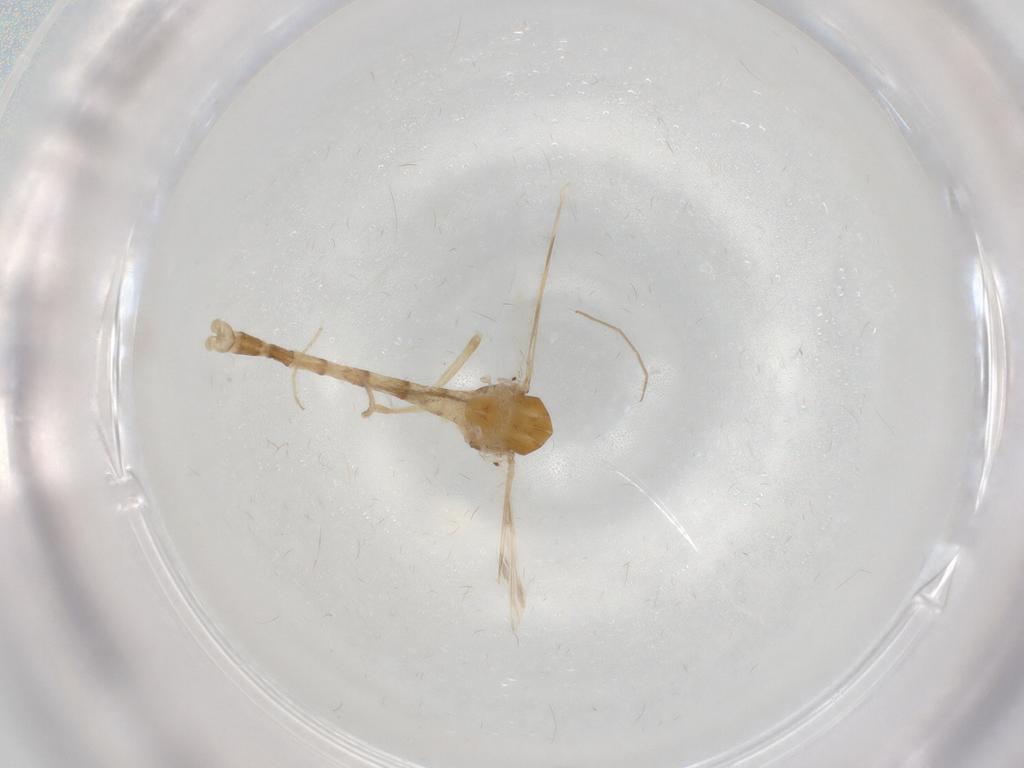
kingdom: Animalia
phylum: Arthropoda
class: Insecta
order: Diptera
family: Chironomidae
